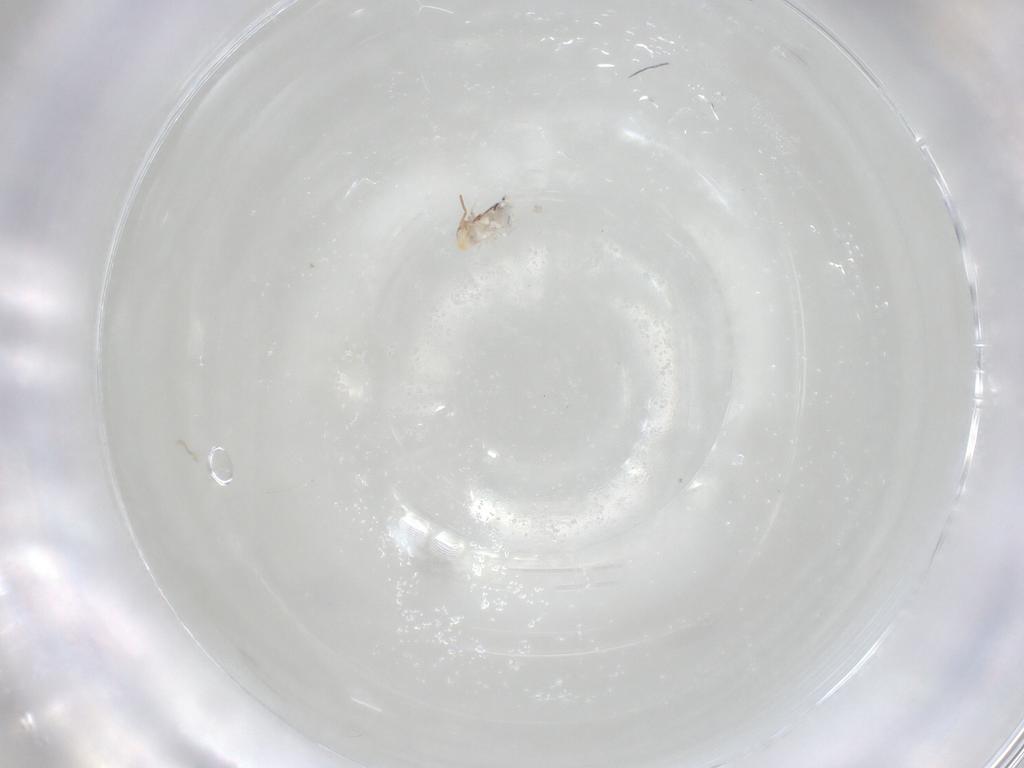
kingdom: Animalia
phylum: Arthropoda
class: Collembola
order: Symphypleona
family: Bourletiellidae
